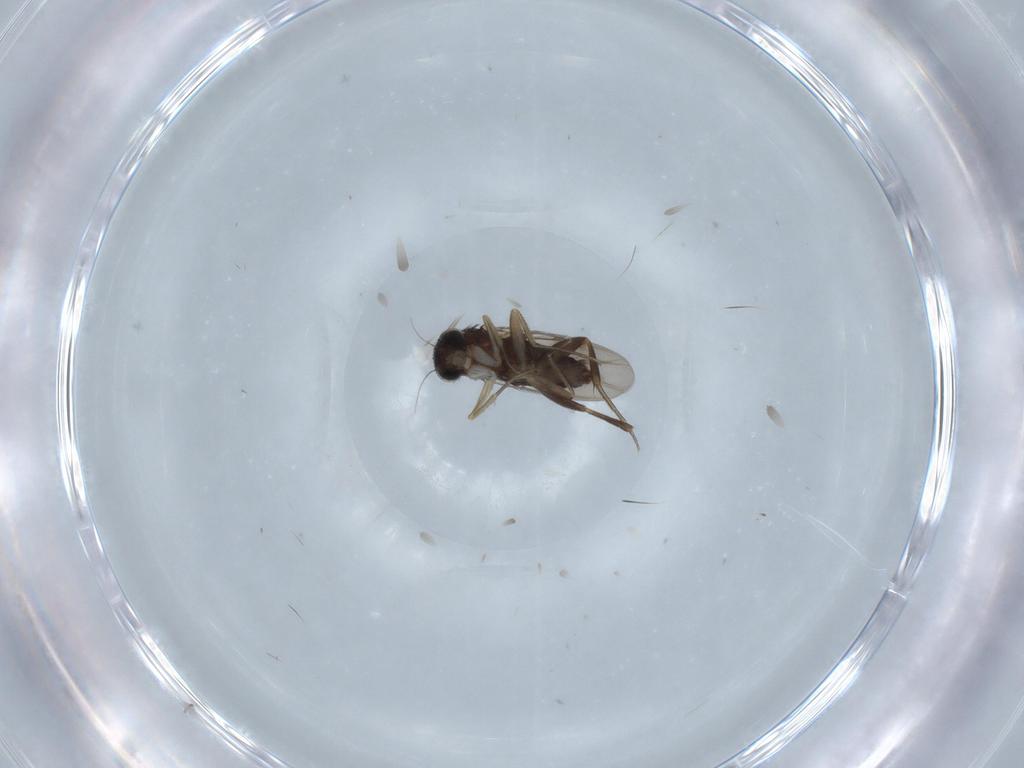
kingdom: Animalia
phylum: Arthropoda
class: Insecta
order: Diptera
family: Phoridae
